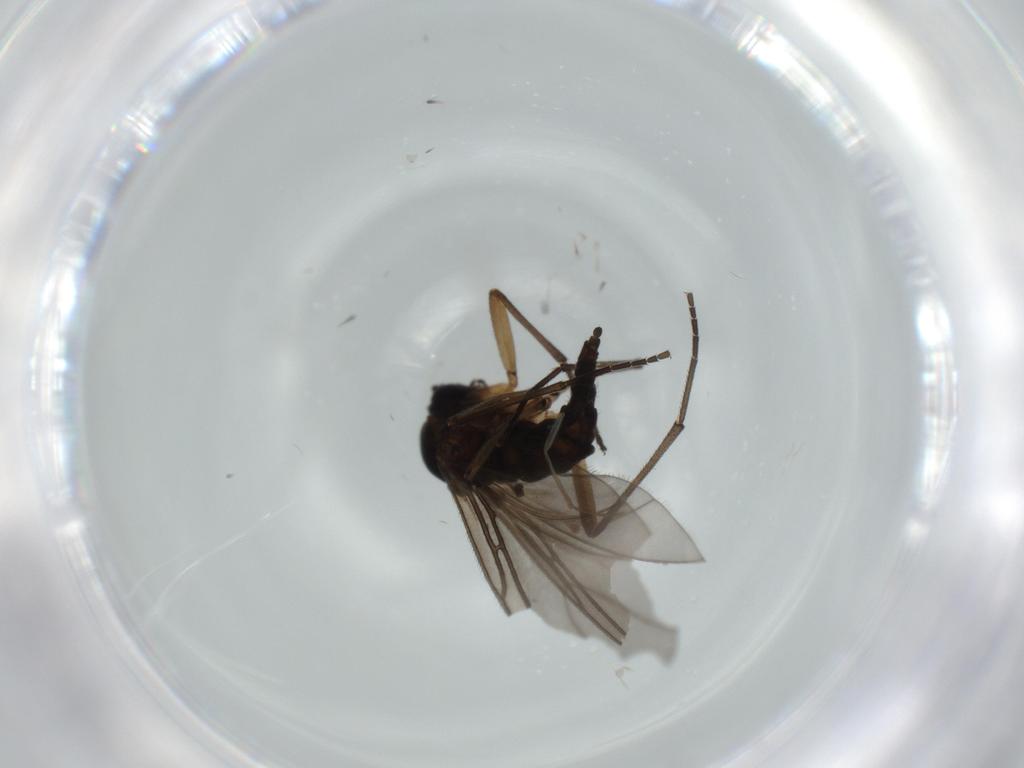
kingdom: Animalia
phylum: Arthropoda
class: Insecta
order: Diptera
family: Sciaridae
